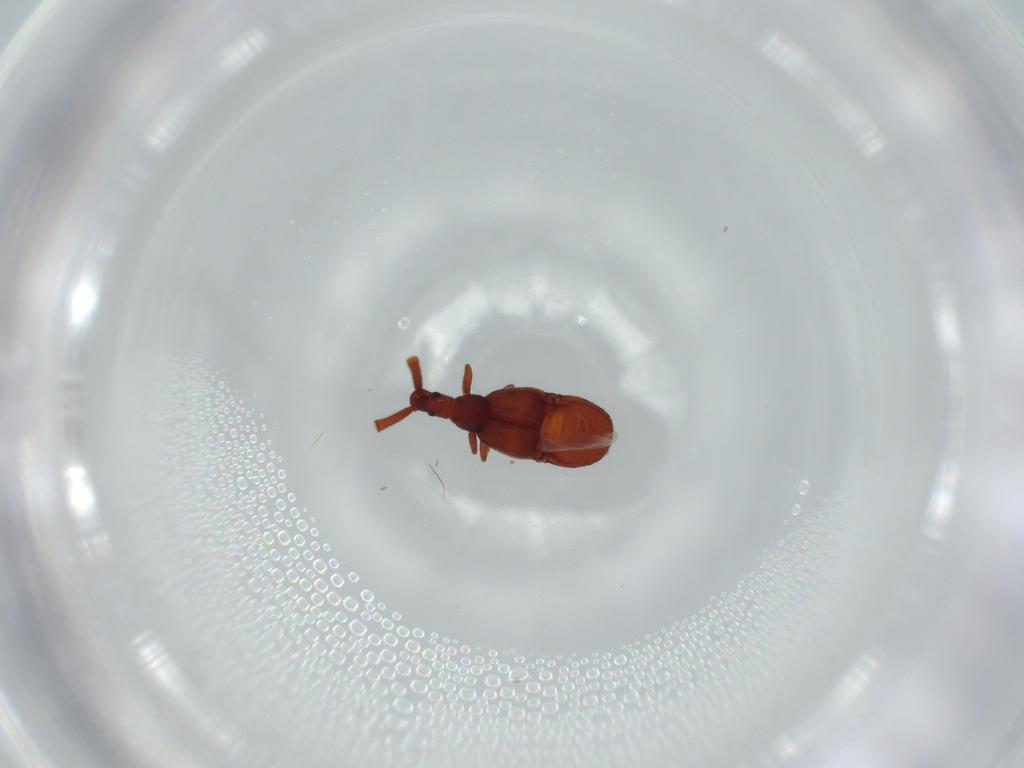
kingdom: Animalia
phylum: Arthropoda
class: Insecta
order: Coleoptera
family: Staphylinidae
